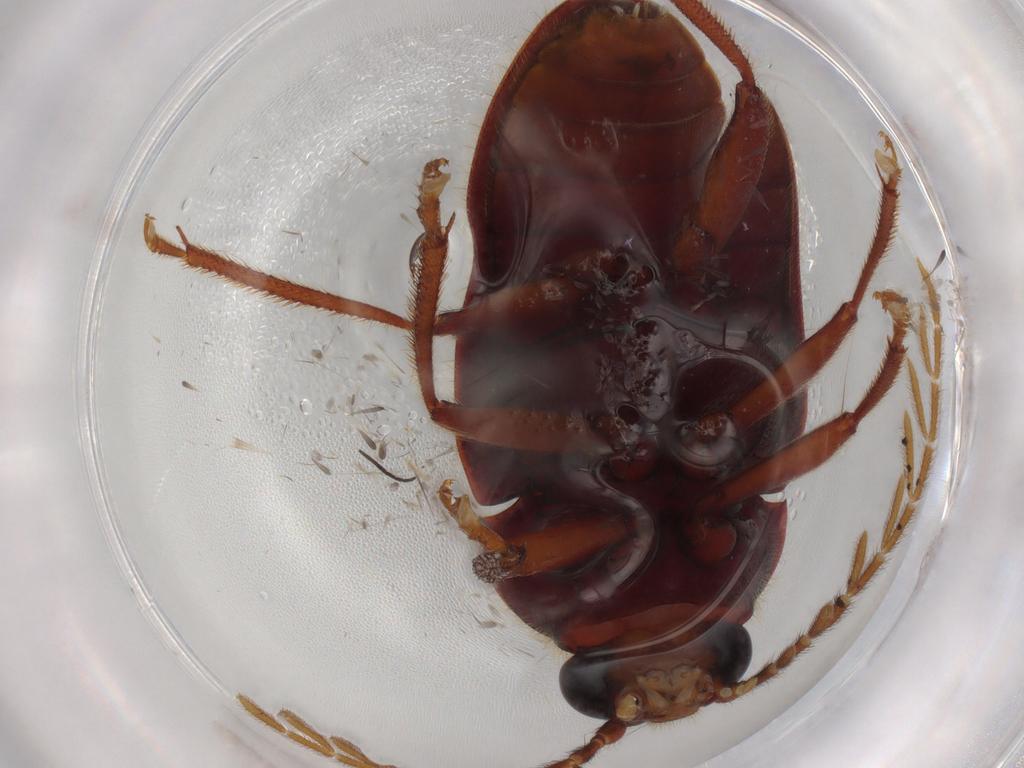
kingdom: Animalia
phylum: Arthropoda
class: Insecta
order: Coleoptera
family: Ptilodactylidae
